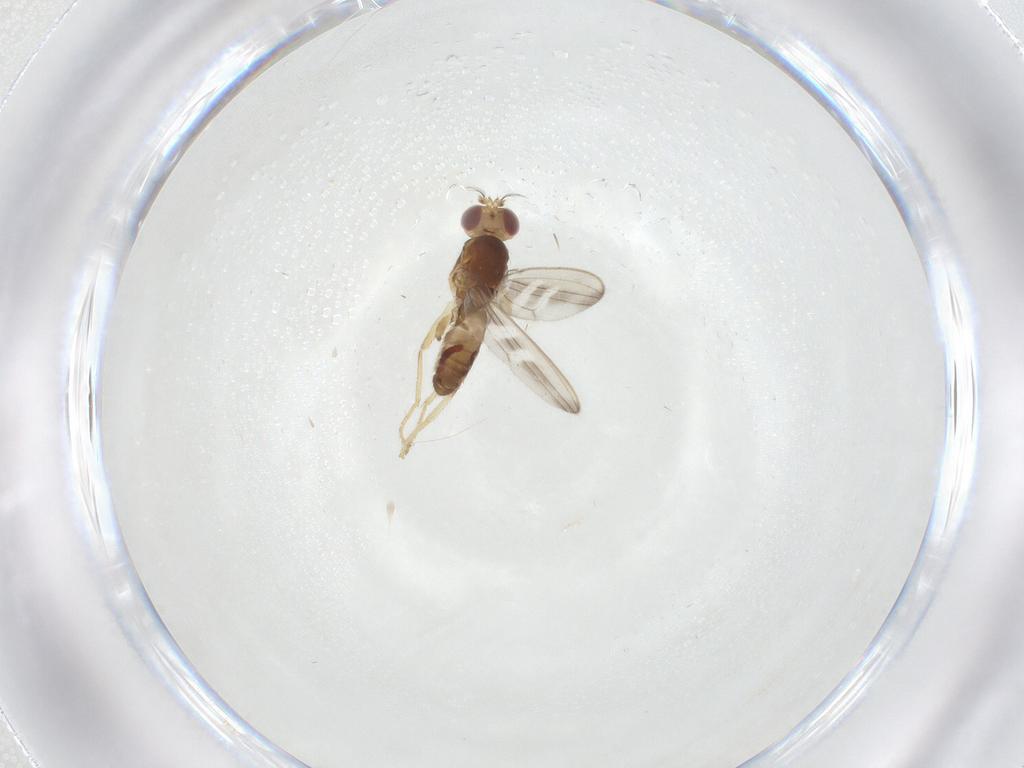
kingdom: Animalia
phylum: Arthropoda
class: Insecta
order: Diptera
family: Periscelididae
